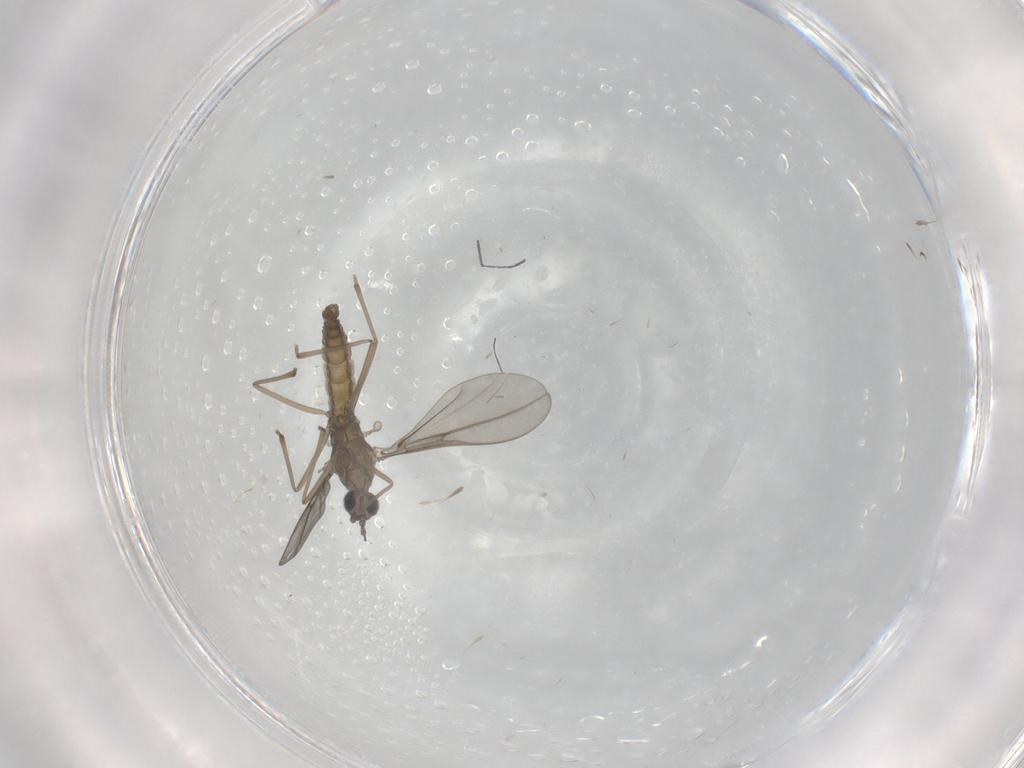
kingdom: Animalia
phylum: Arthropoda
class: Insecta
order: Diptera
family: Cecidomyiidae
